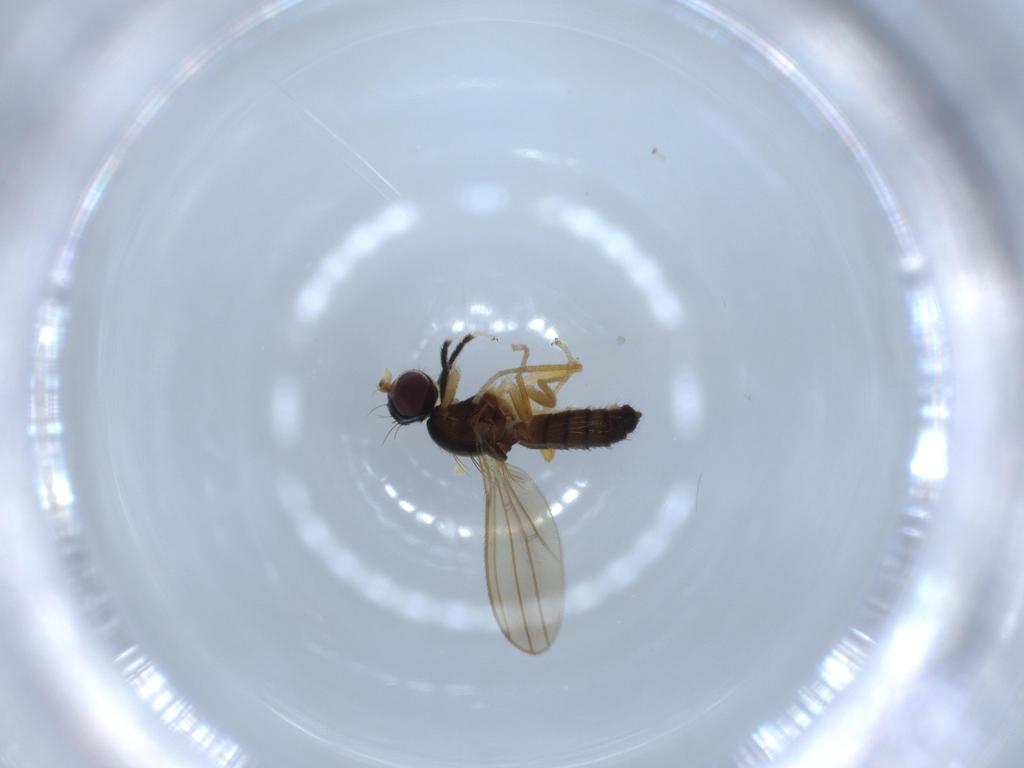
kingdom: Animalia
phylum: Arthropoda
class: Insecta
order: Diptera
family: Anthomyzidae
